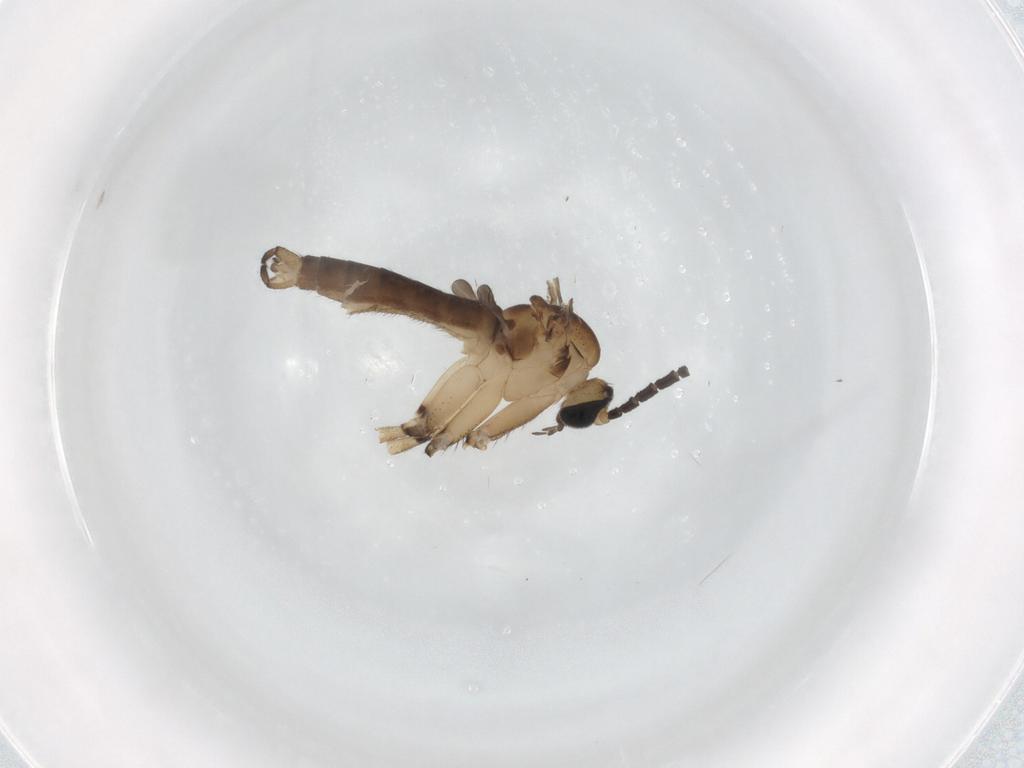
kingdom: Animalia
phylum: Arthropoda
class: Insecta
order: Diptera
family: Sciaridae
